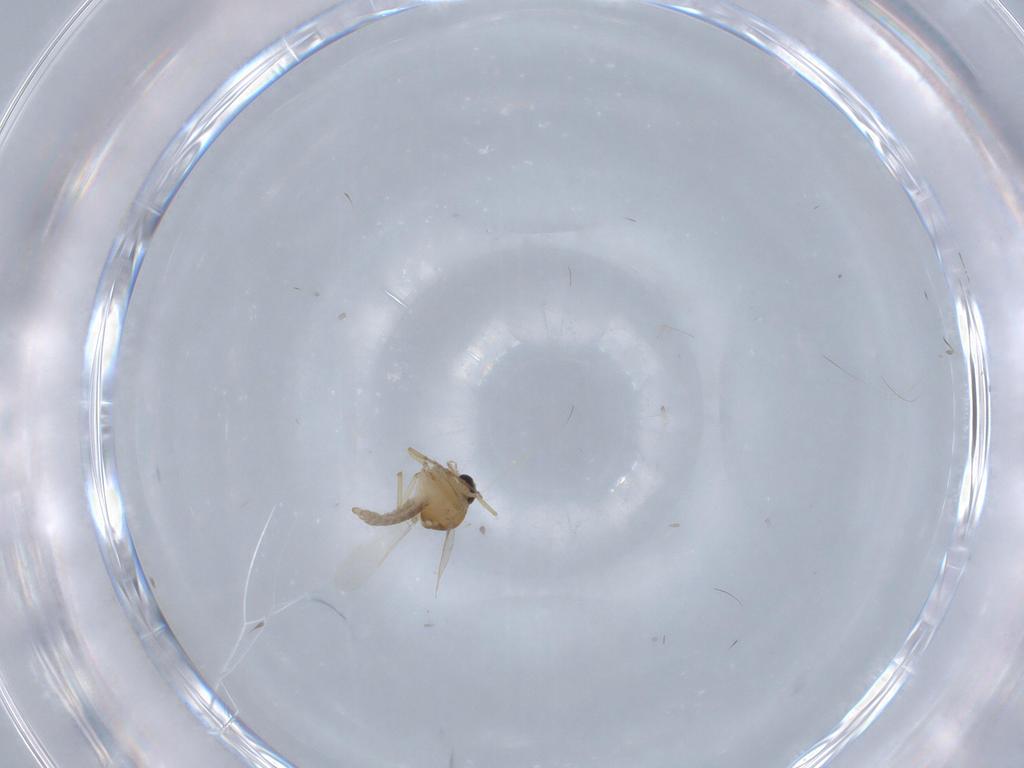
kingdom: Animalia
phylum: Arthropoda
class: Insecta
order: Diptera
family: Ceratopogonidae
